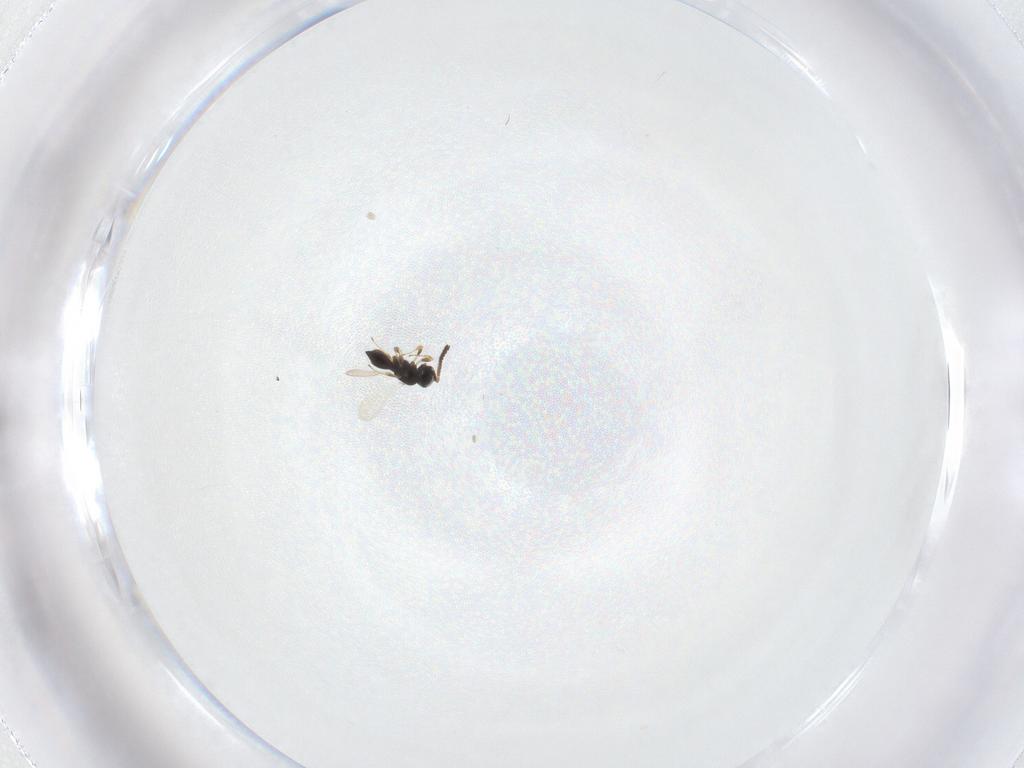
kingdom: Animalia
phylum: Arthropoda
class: Insecta
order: Hymenoptera
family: Scelionidae
